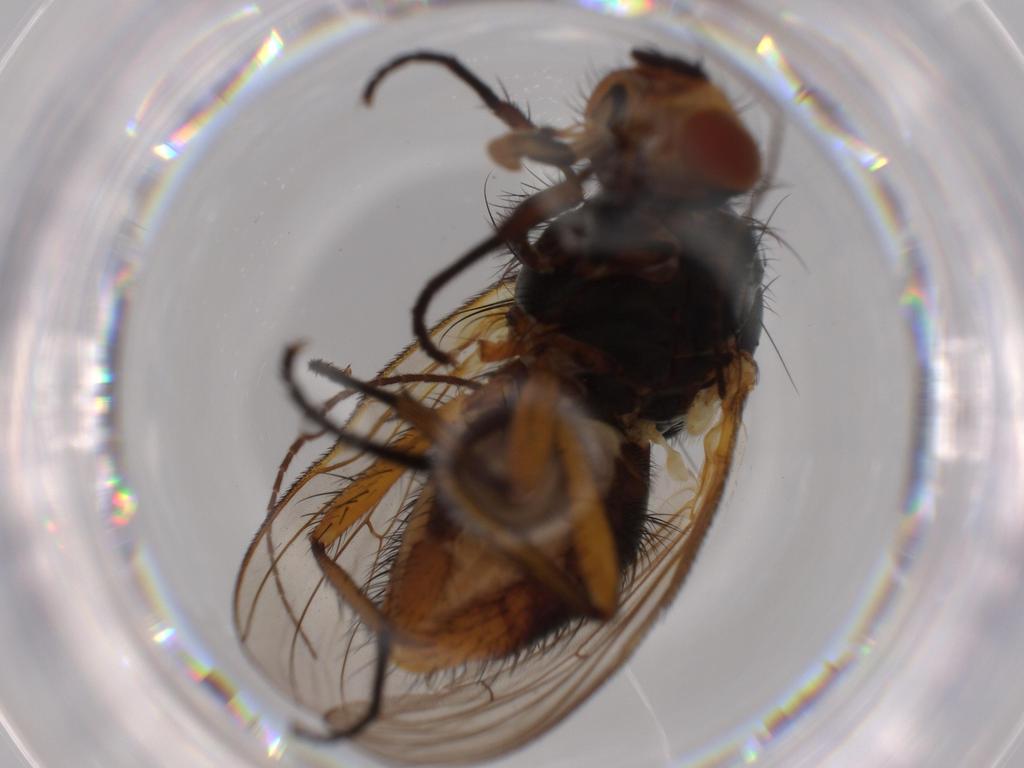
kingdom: Animalia
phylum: Arthropoda
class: Insecta
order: Diptera
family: Anthomyiidae
